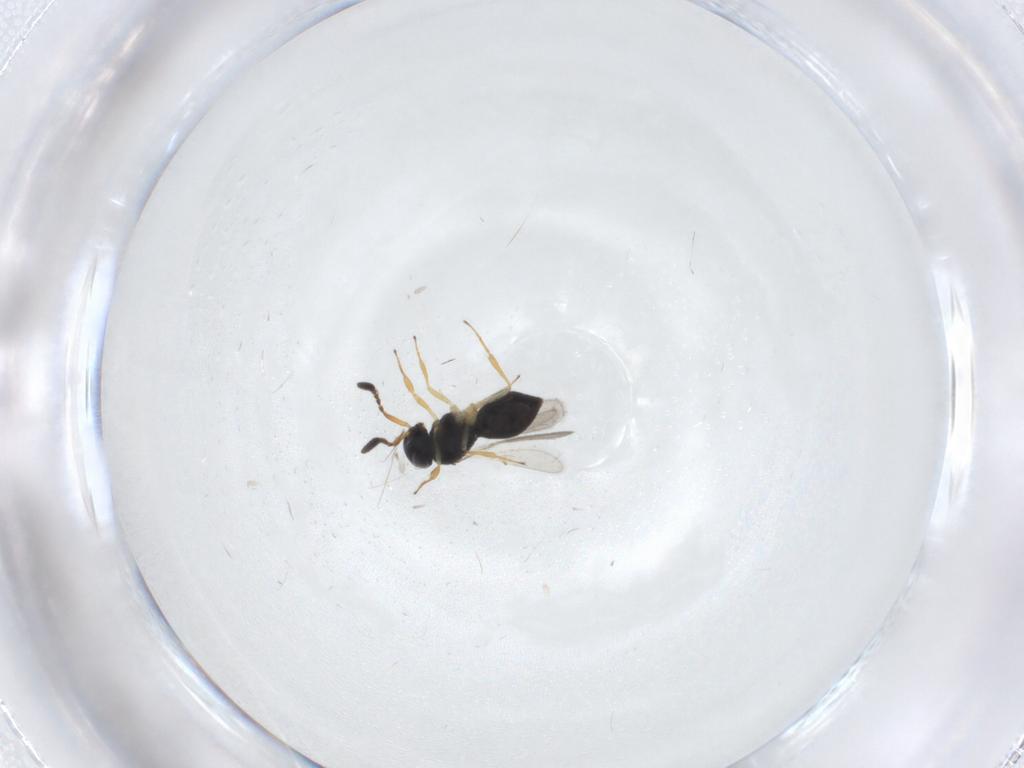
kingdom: Animalia
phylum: Arthropoda
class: Insecta
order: Hymenoptera
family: Scelionidae
